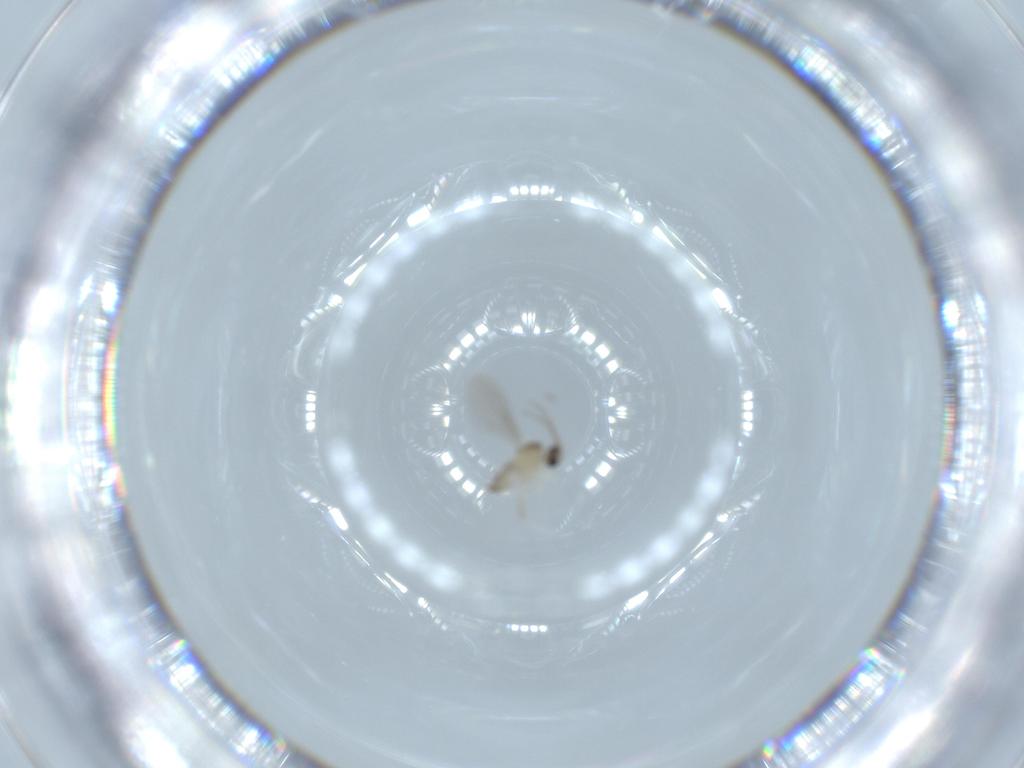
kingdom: Animalia
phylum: Arthropoda
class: Insecta
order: Diptera
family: Cecidomyiidae
